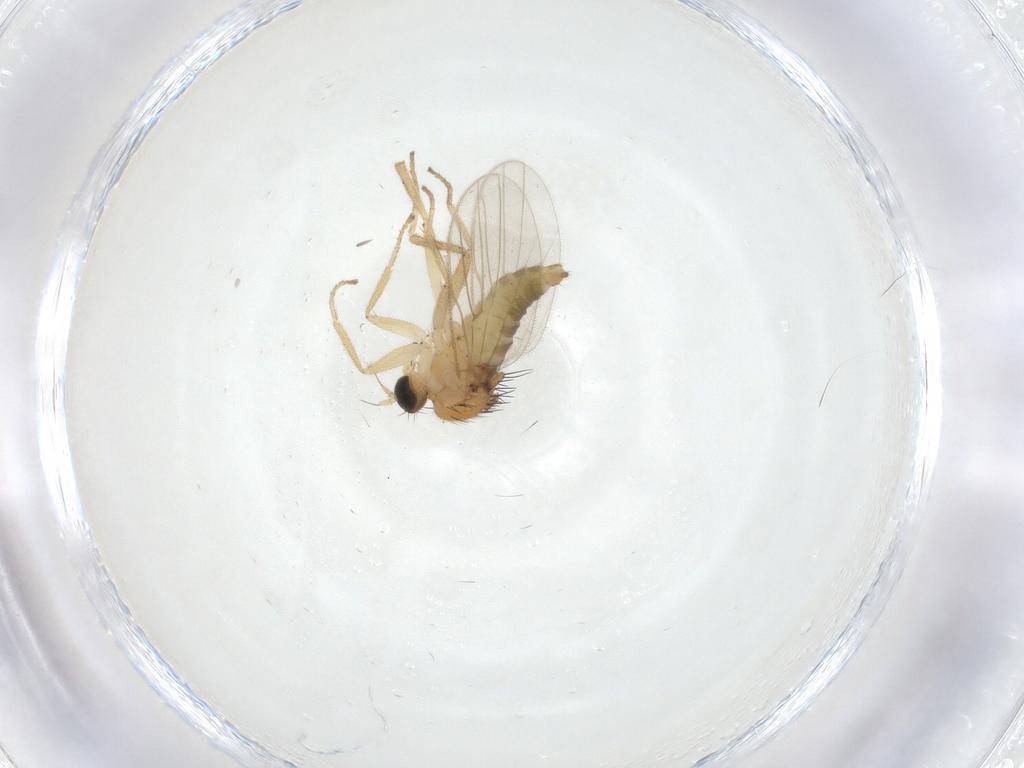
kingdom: Animalia
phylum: Arthropoda
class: Insecta
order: Diptera
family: Hybotidae
